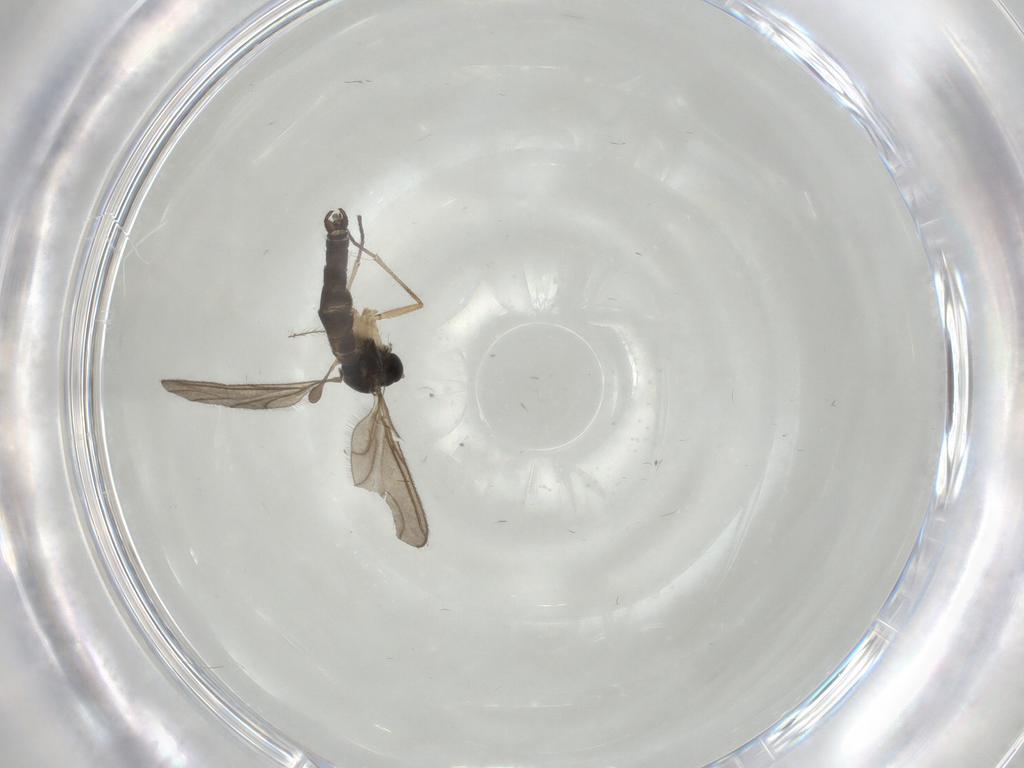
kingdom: Animalia
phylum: Arthropoda
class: Insecta
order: Diptera
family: Sciaridae
